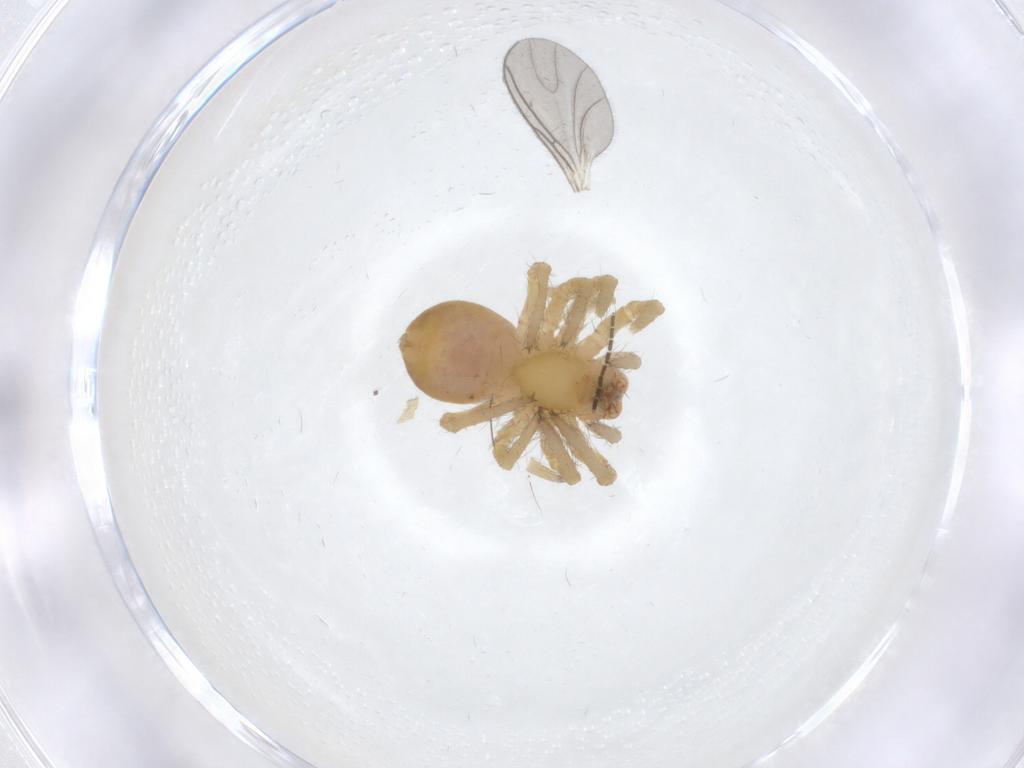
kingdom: Animalia
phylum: Arthropoda
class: Arachnida
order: Araneae
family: Mimetidae
